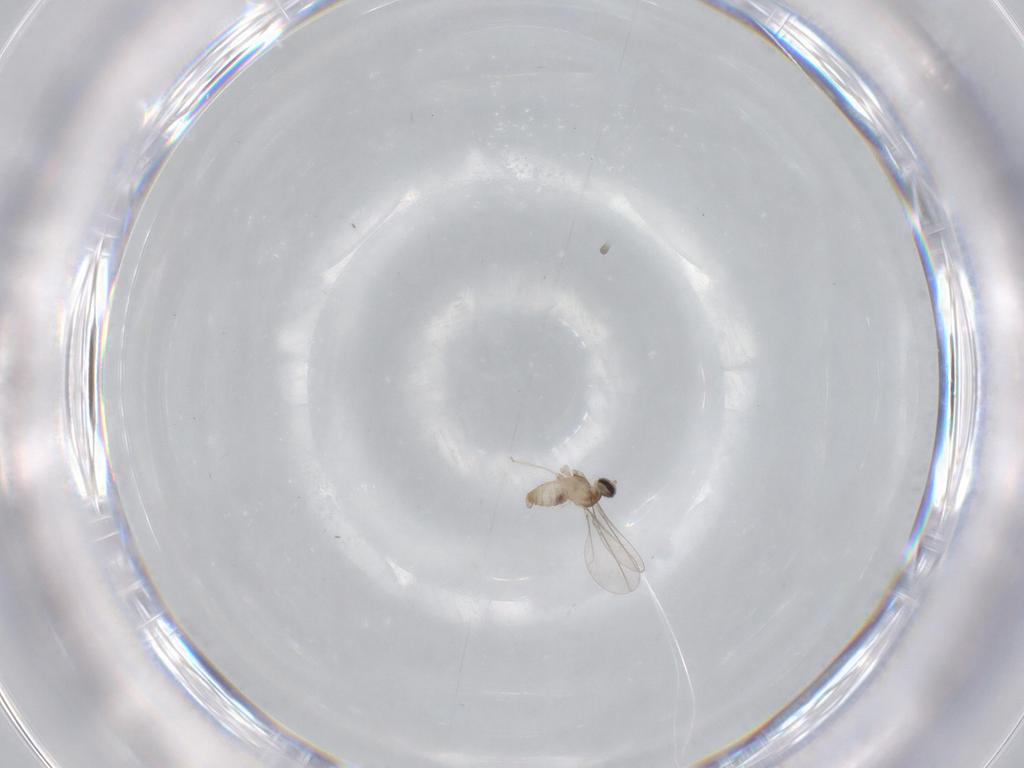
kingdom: Animalia
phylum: Arthropoda
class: Insecta
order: Diptera
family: Cecidomyiidae
